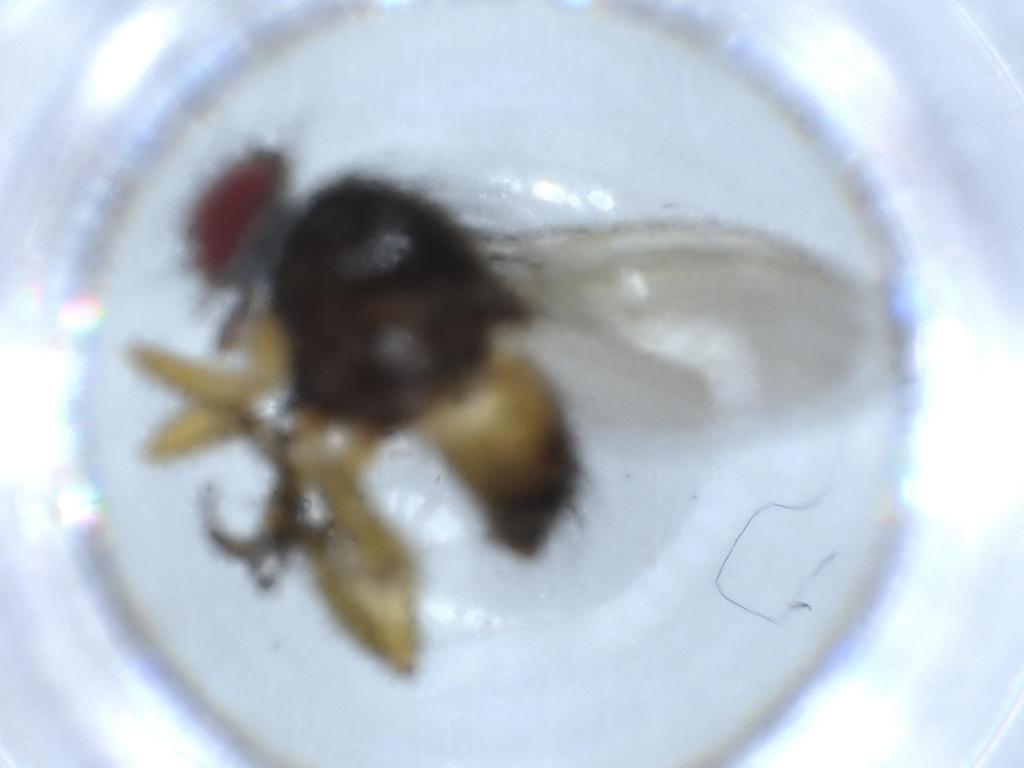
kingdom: Animalia
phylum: Arthropoda
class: Insecta
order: Diptera
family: Muscidae
